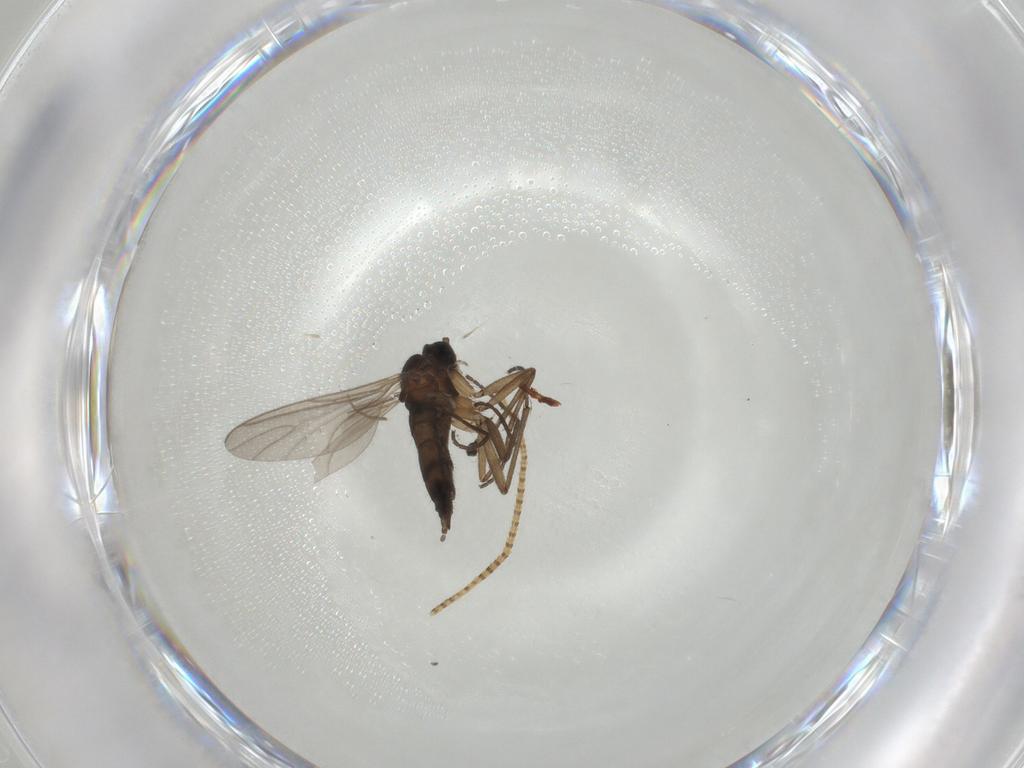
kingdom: Animalia
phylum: Arthropoda
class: Insecta
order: Diptera
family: Sciaridae
